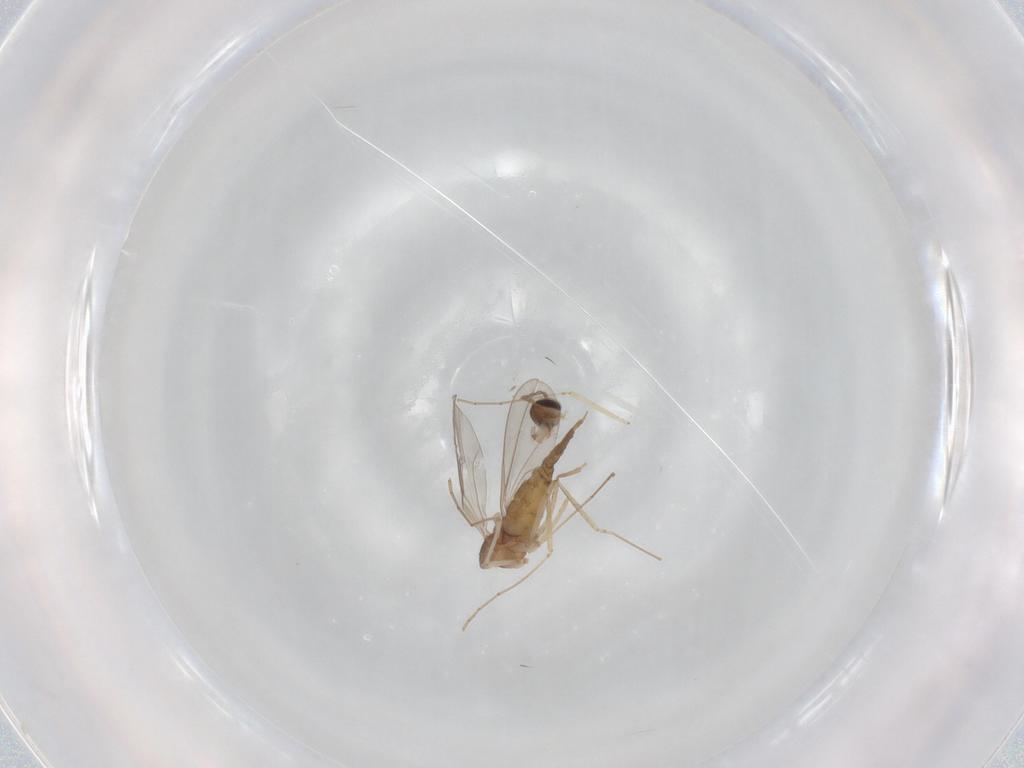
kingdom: Animalia
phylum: Arthropoda
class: Insecta
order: Diptera
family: Cecidomyiidae
